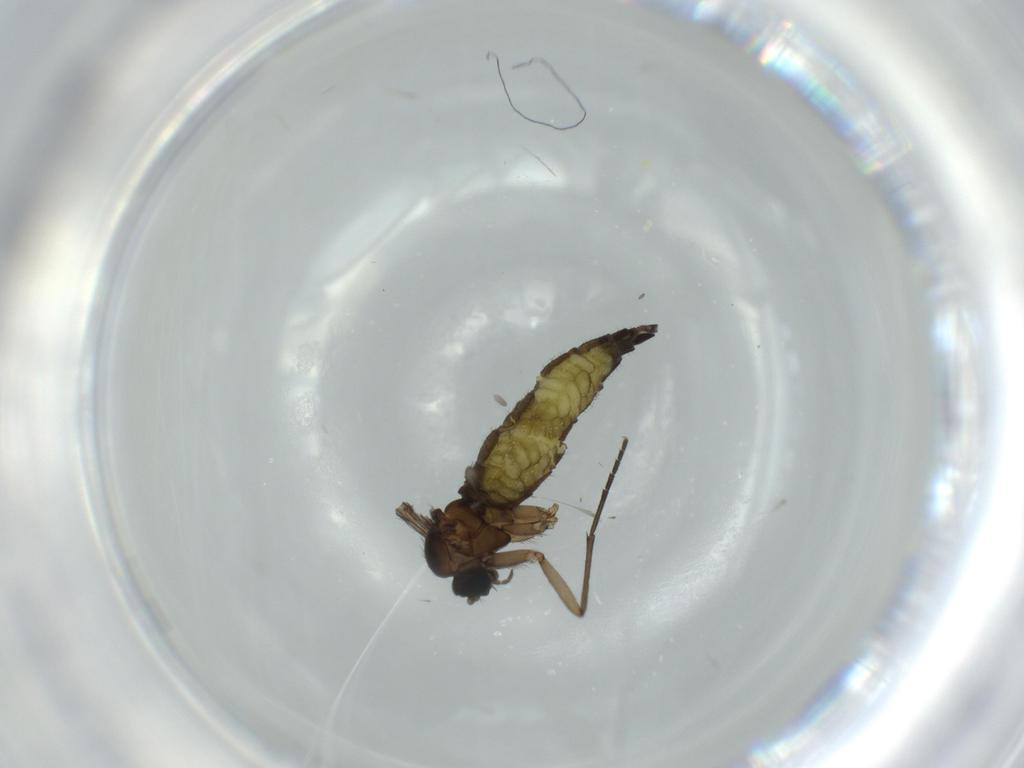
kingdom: Animalia
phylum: Arthropoda
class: Insecta
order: Diptera
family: Sciaridae
